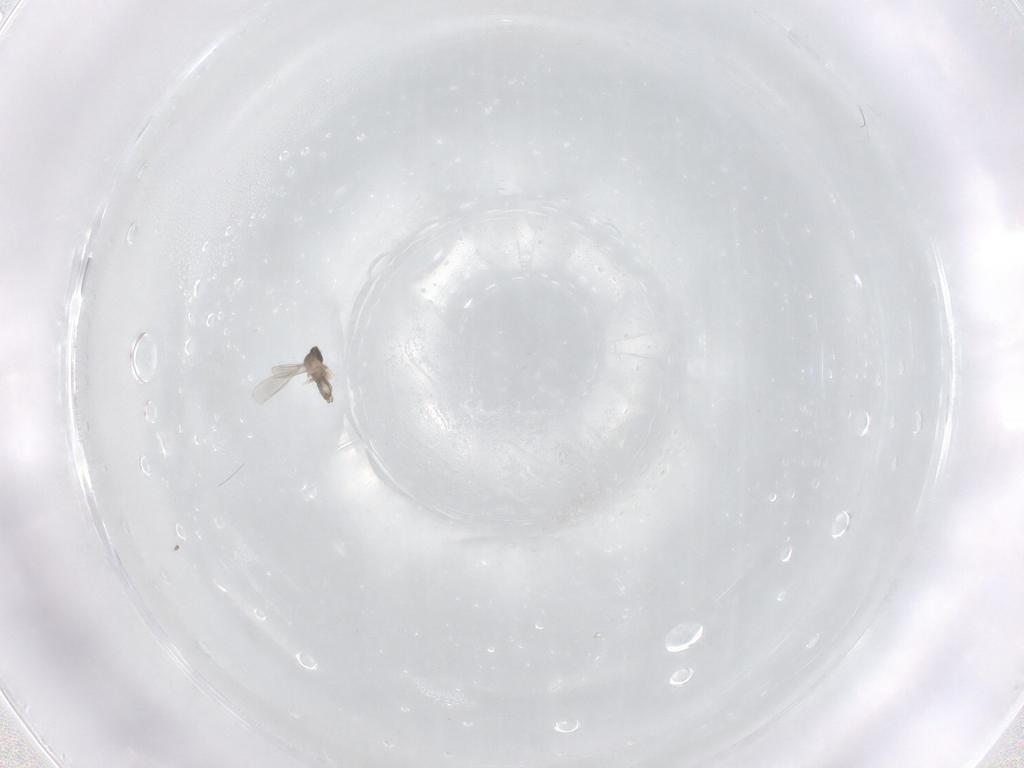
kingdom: Animalia
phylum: Arthropoda
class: Insecta
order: Diptera
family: Cecidomyiidae
